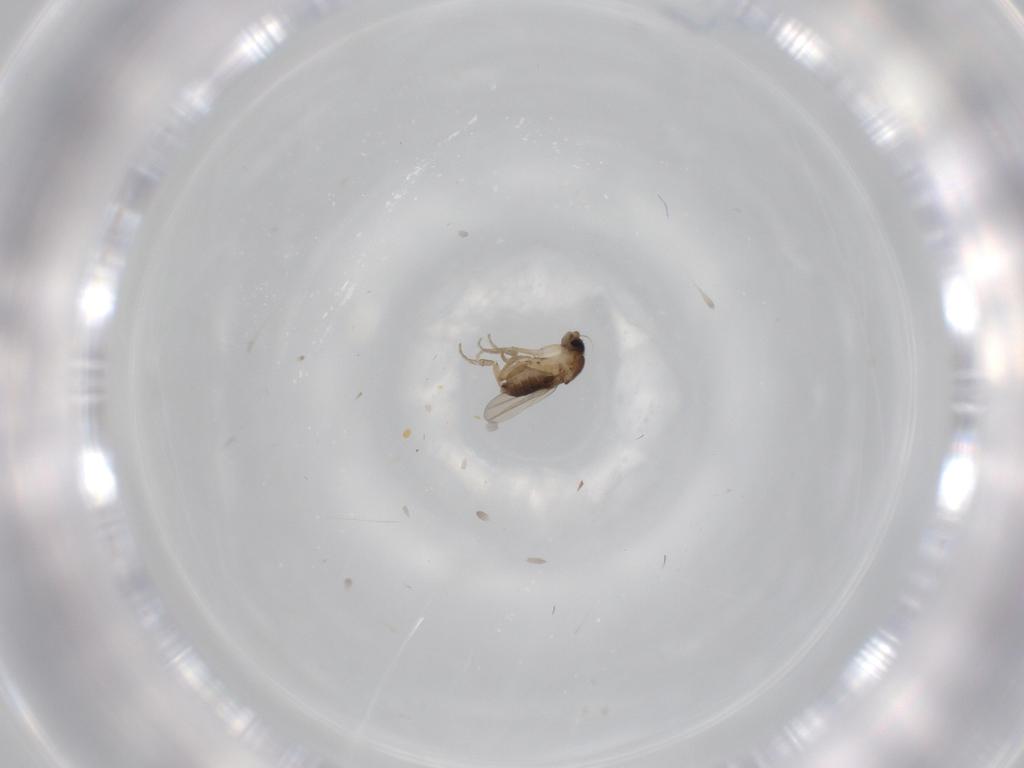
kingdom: Animalia
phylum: Arthropoda
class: Insecta
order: Diptera
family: Phoridae
